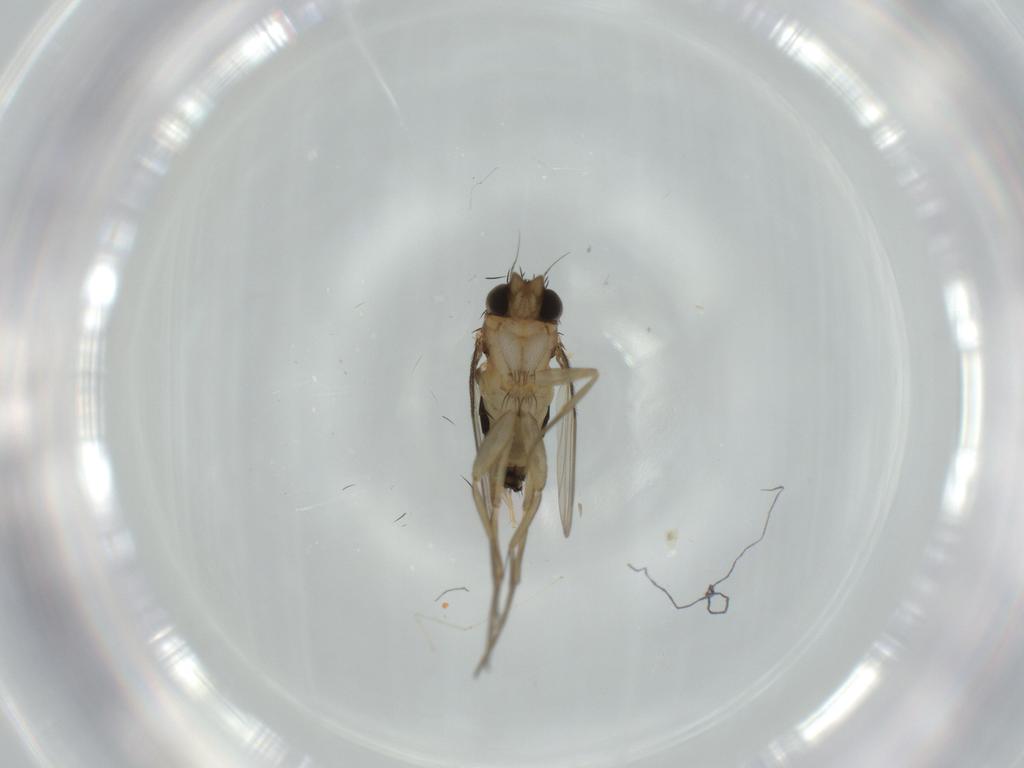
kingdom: Animalia
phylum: Arthropoda
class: Insecta
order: Diptera
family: Cecidomyiidae
